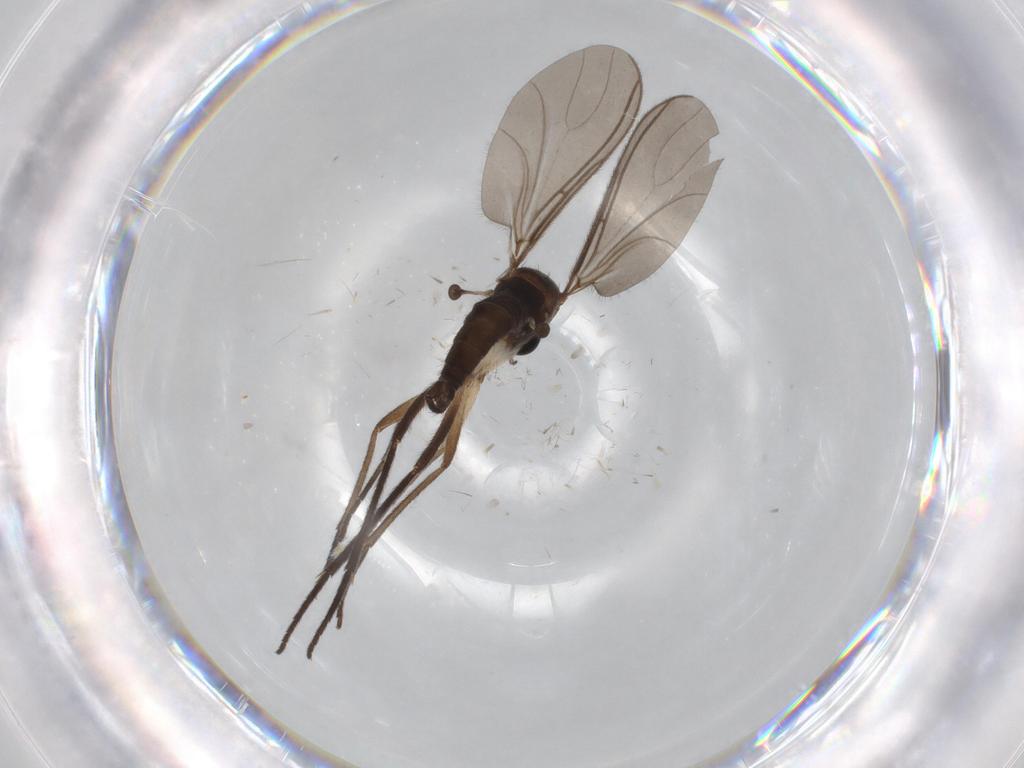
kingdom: Animalia
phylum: Arthropoda
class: Insecta
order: Diptera
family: Sciaridae
